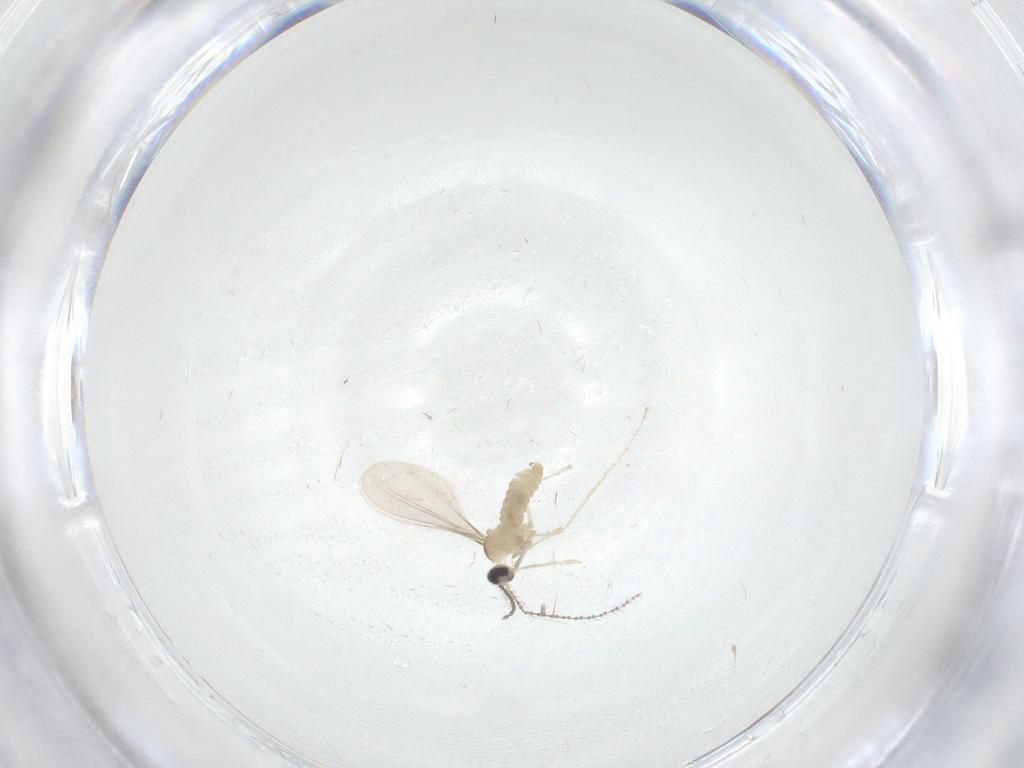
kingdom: Animalia
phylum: Arthropoda
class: Insecta
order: Diptera
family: Cecidomyiidae
